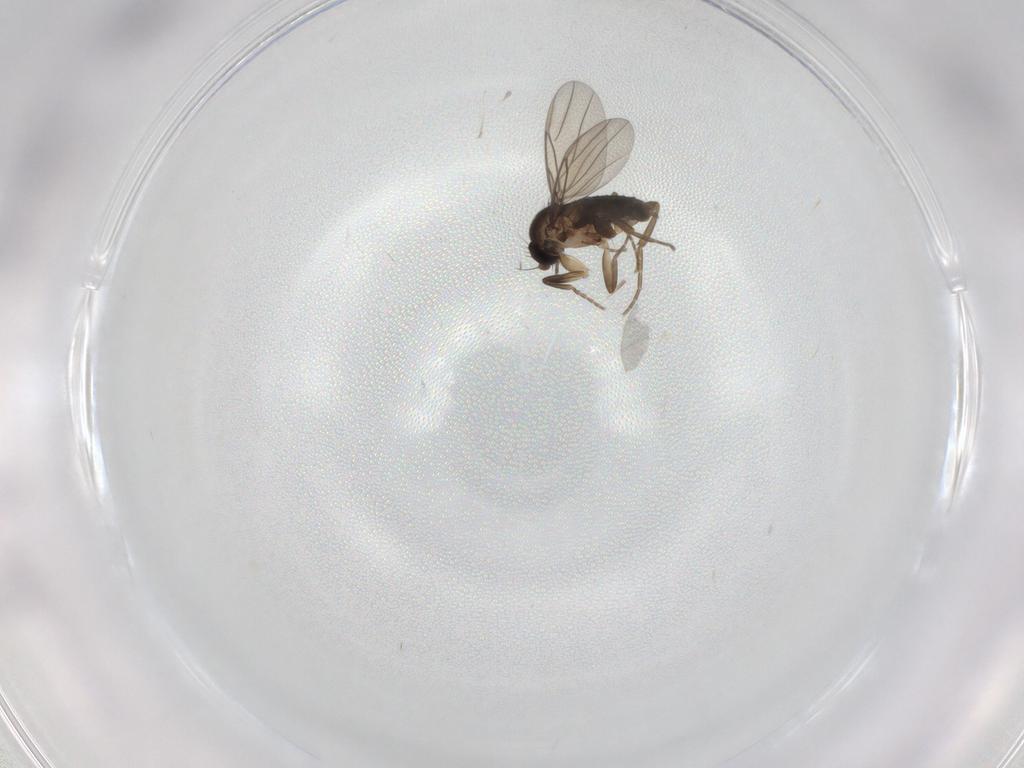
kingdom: Animalia
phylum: Arthropoda
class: Insecta
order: Diptera
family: Phoridae
